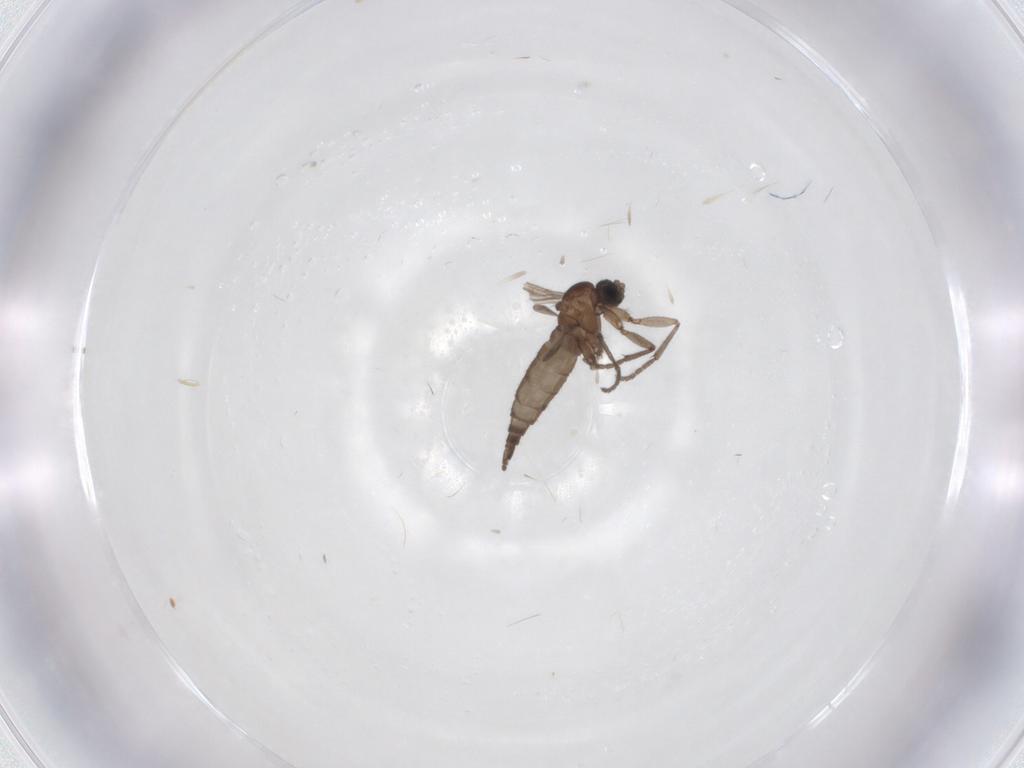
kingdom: Animalia
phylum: Arthropoda
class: Insecta
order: Diptera
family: Sciaridae
